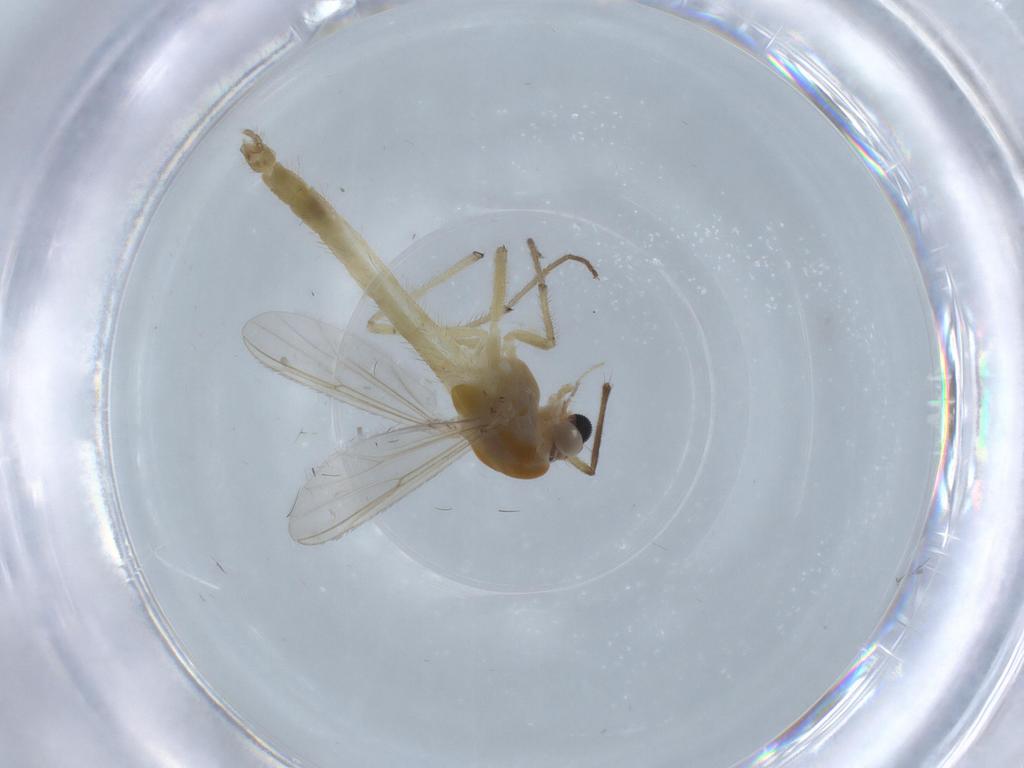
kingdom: Animalia
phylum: Arthropoda
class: Insecta
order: Diptera
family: Chironomidae
